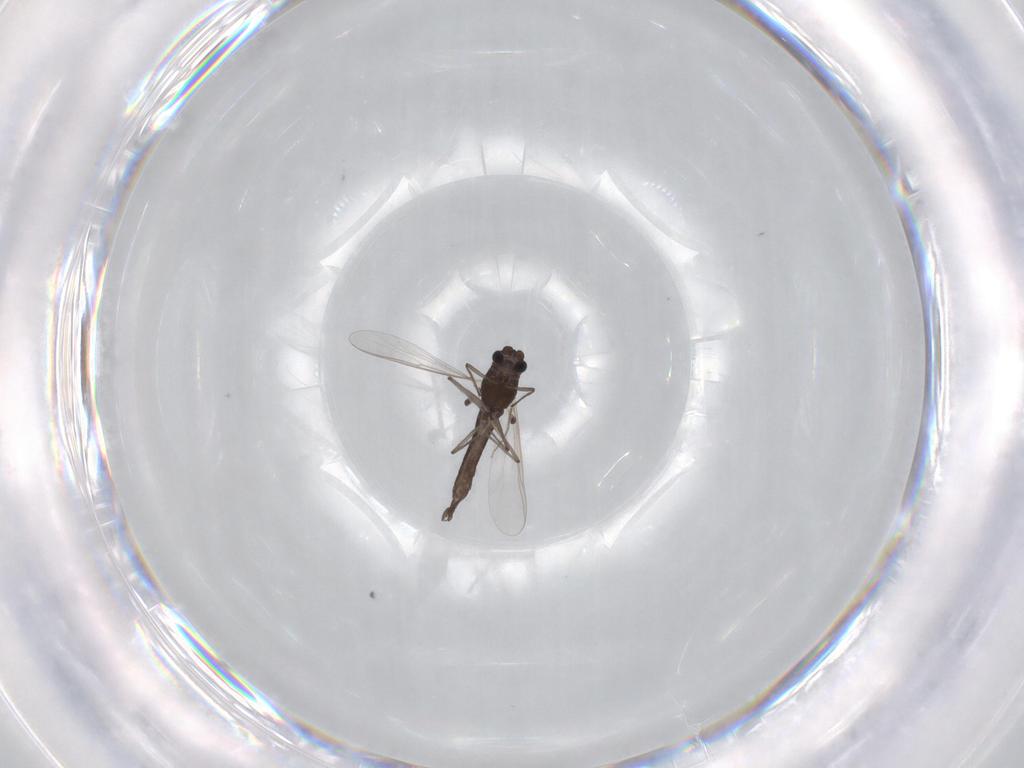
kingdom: Animalia
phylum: Arthropoda
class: Insecta
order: Diptera
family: Chironomidae
